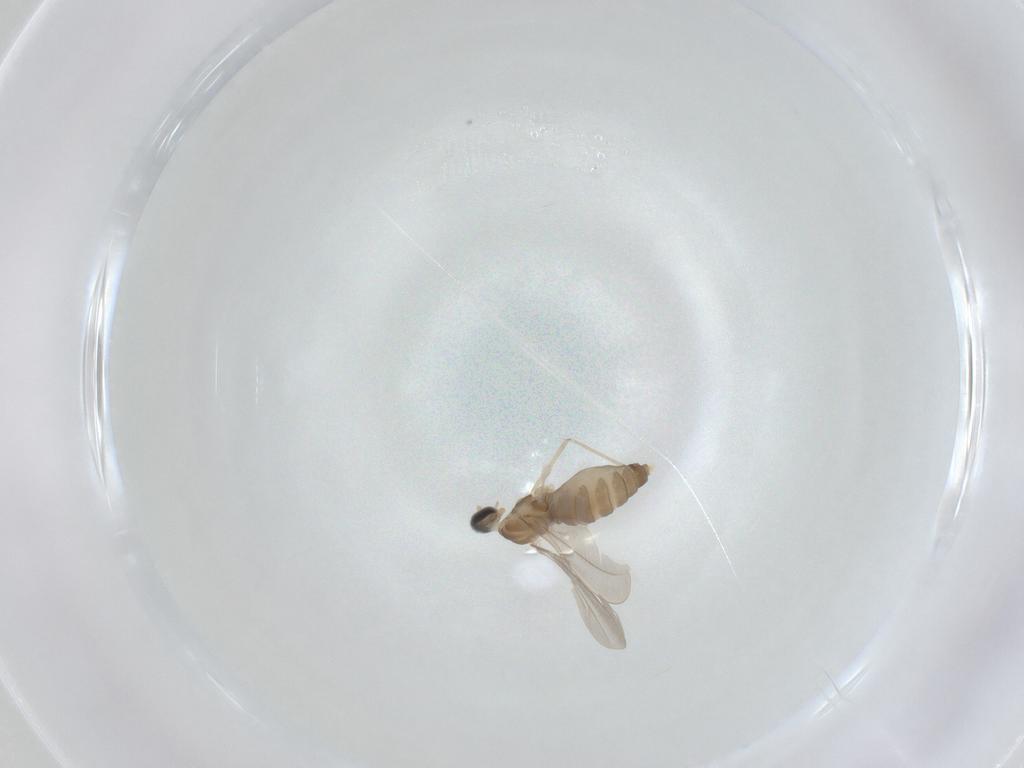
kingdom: Animalia
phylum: Arthropoda
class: Insecta
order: Diptera
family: Cecidomyiidae
